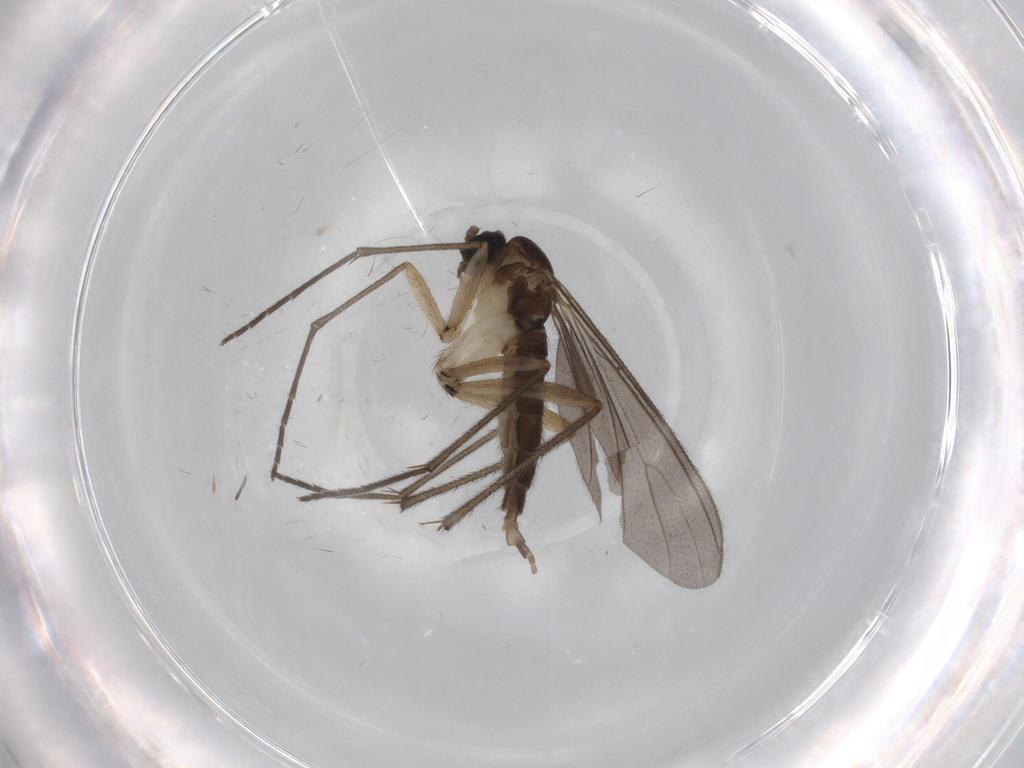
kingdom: Animalia
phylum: Arthropoda
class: Insecta
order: Diptera
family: Sciaridae
